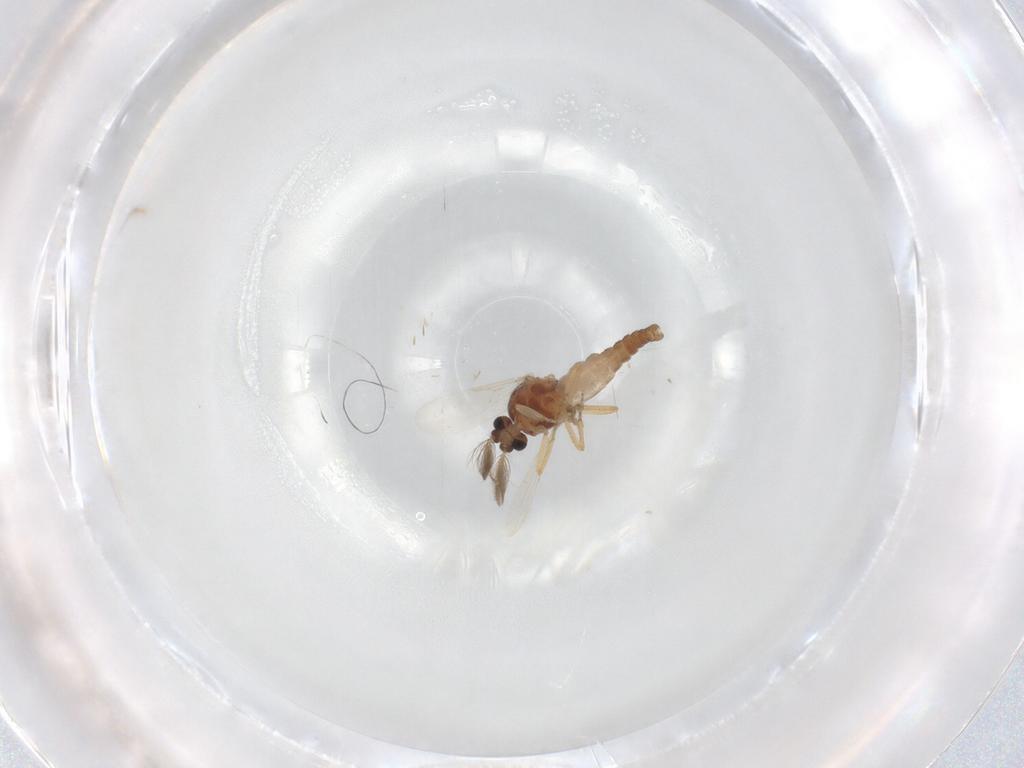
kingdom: Animalia
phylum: Arthropoda
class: Insecta
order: Diptera
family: Ceratopogonidae
